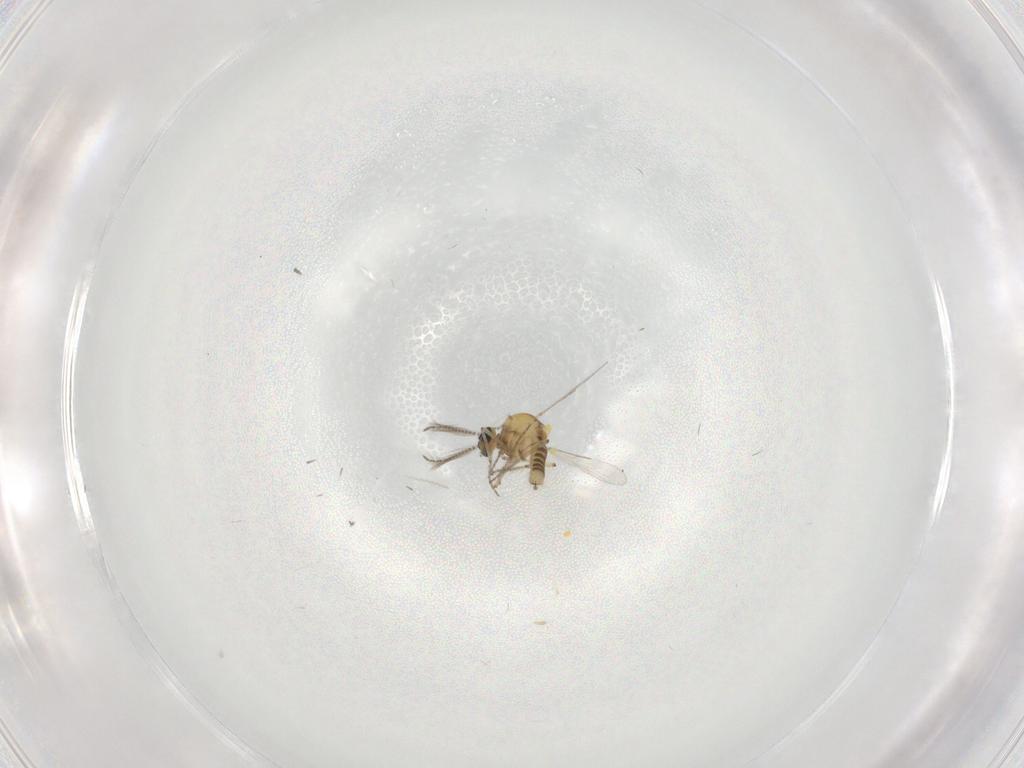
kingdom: Animalia
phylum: Arthropoda
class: Insecta
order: Diptera
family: Ceratopogonidae
